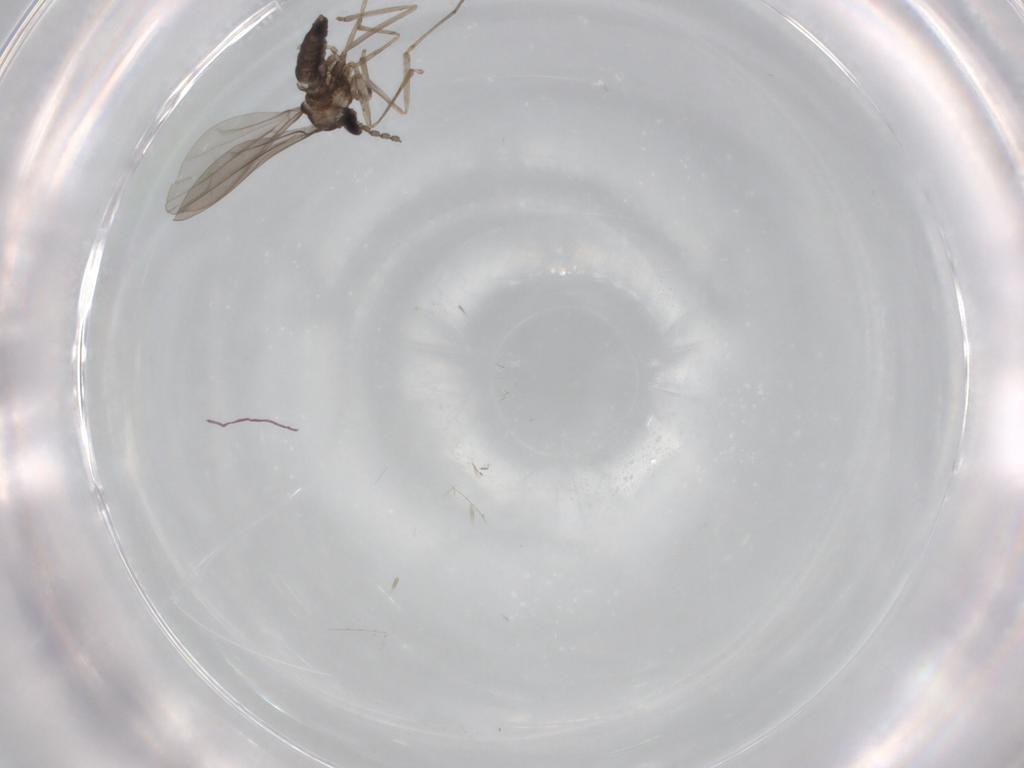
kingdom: Animalia
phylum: Arthropoda
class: Insecta
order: Diptera
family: Cecidomyiidae
